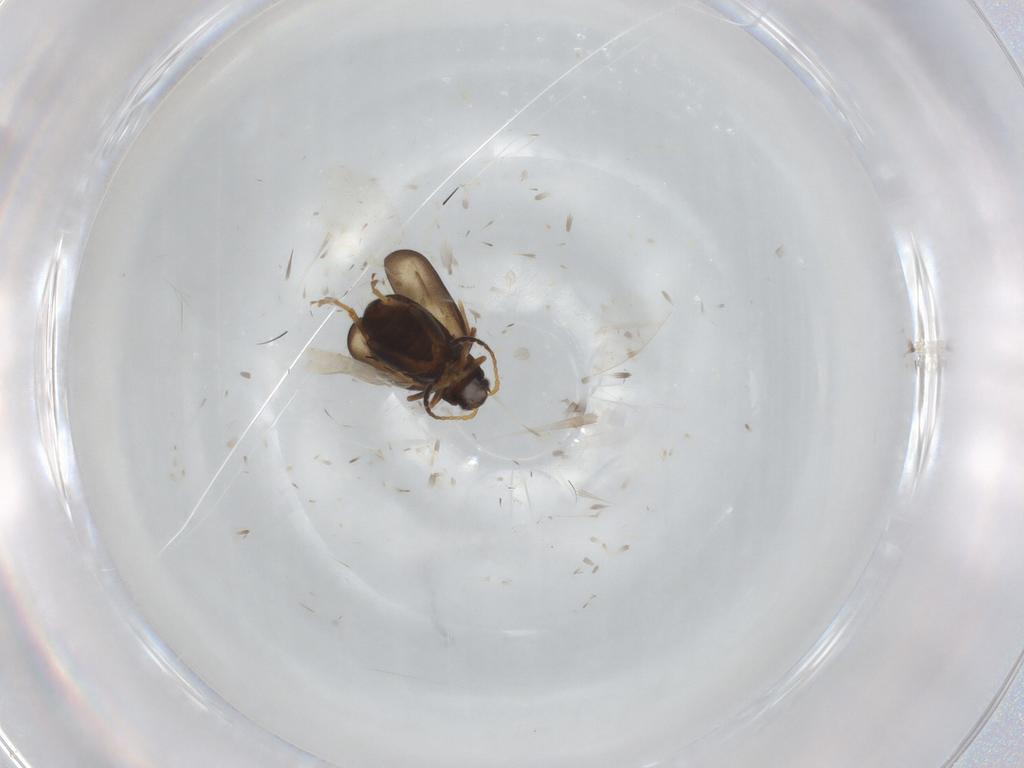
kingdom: Animalia
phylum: Arthropoda
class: Insecta
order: Coleoptera
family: Chrysomelidae
